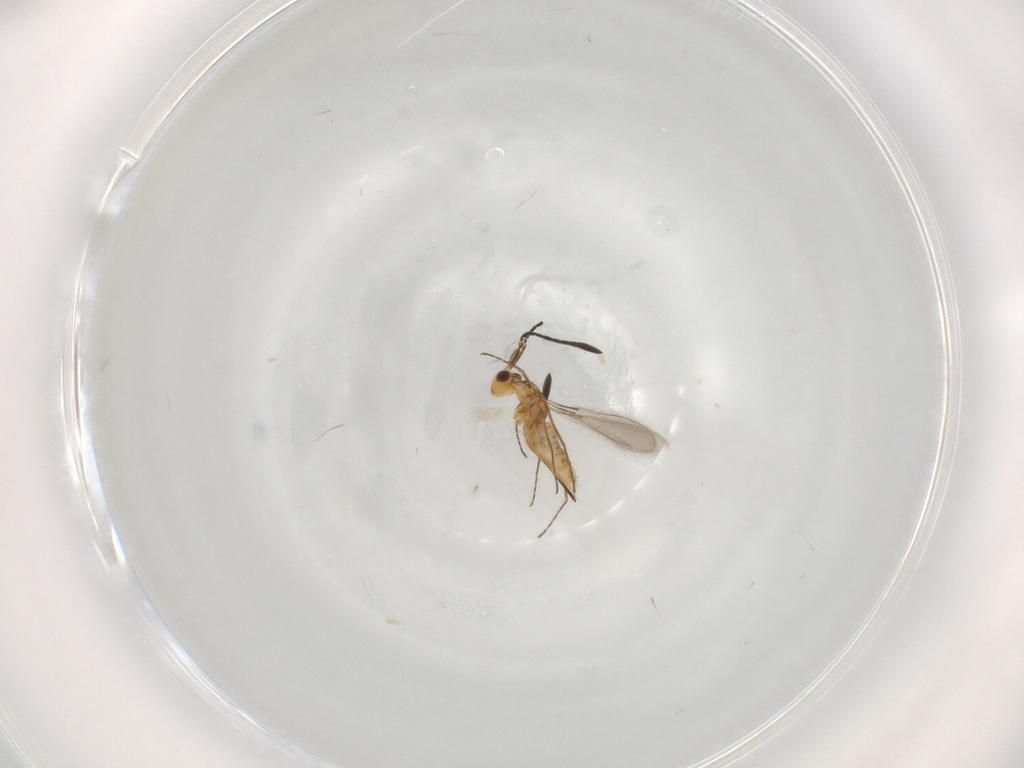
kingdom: Animalia
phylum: Arthropoda
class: Insecta
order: Hymenoptera
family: Mymaridae
